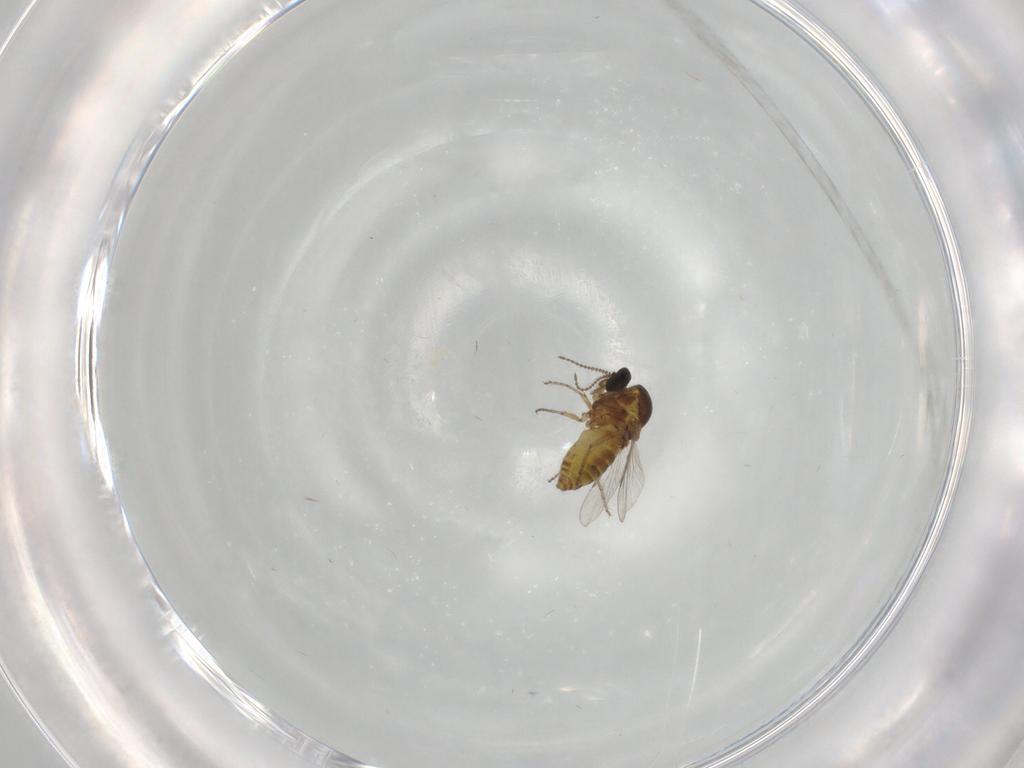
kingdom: Animalia
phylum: Arthropoda
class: Insecta
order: Diptera
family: Ceratopogonidae
